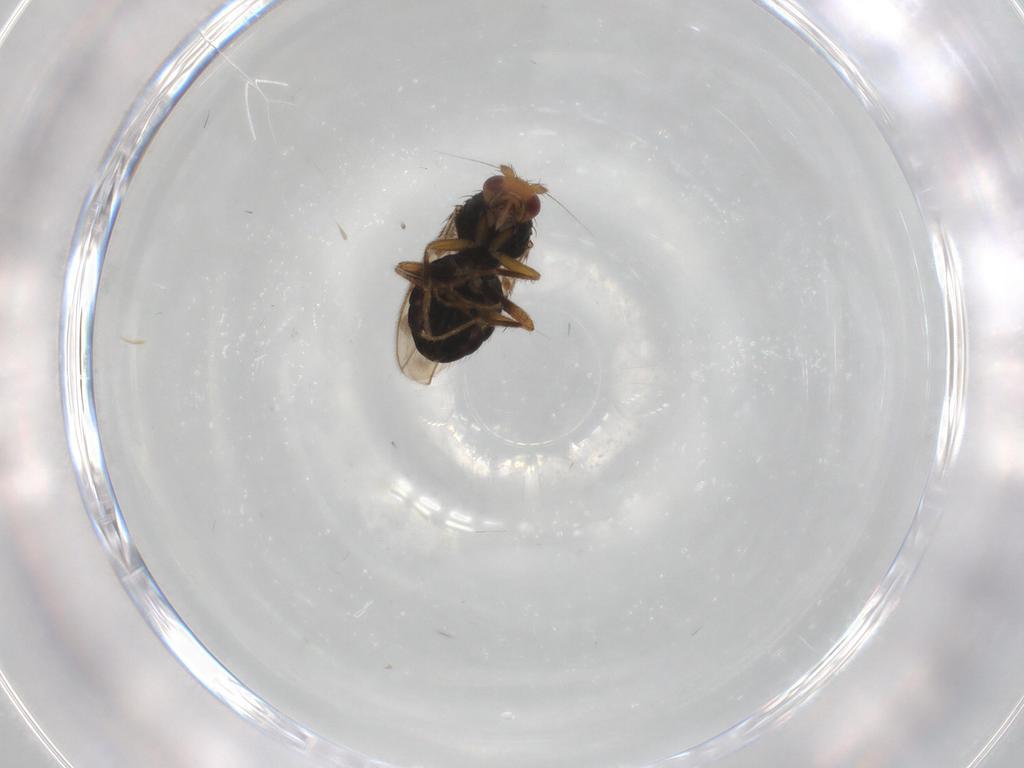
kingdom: Animalia
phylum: Arthropoda
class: Insecta
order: Diptera
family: Sphaeroceridae
